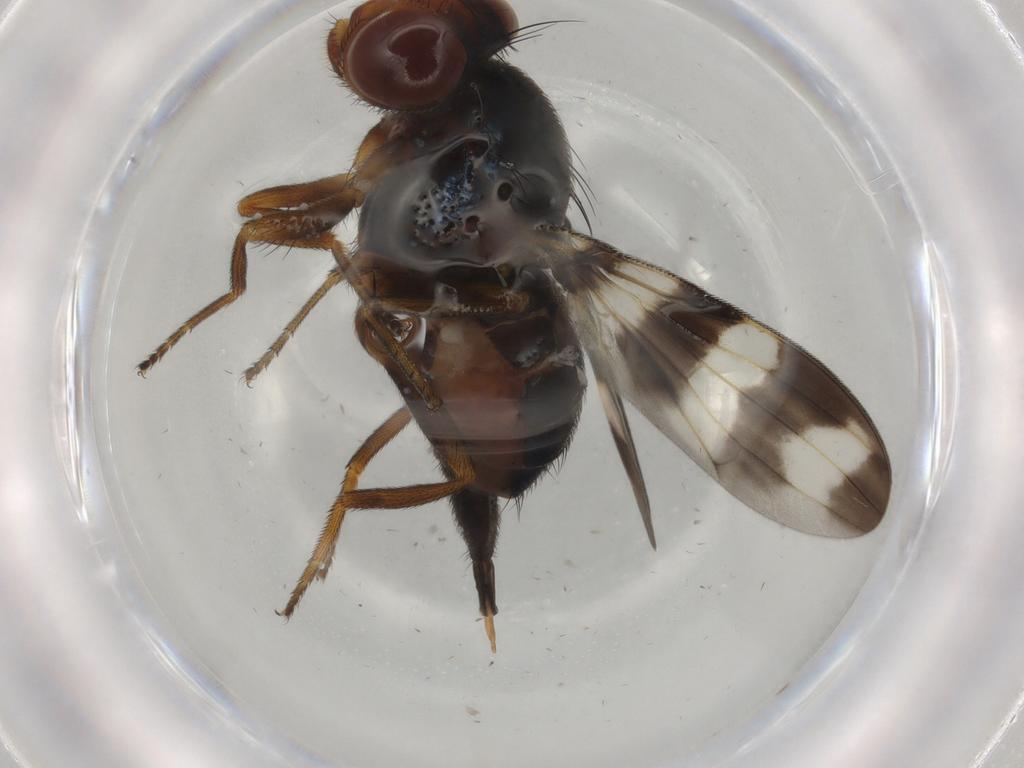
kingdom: Animalia
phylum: Arthropoda
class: Insecta
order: Diptera
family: Ulidiidae
